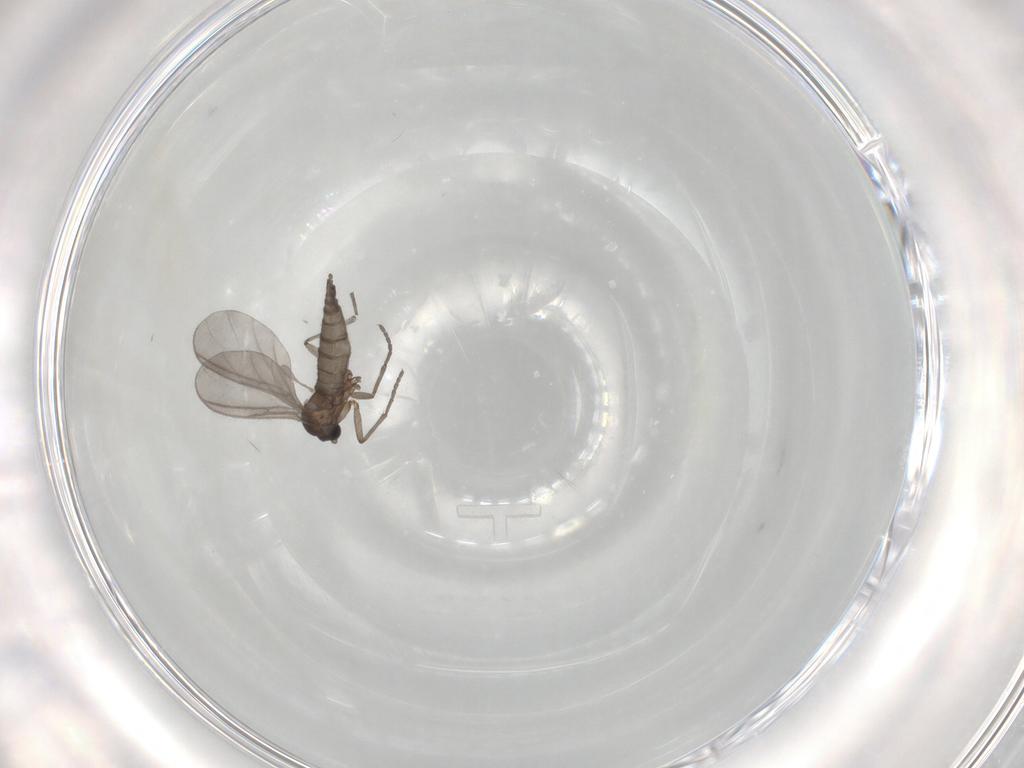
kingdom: Animalia
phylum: Arthropoda
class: Insecta
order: Diptera
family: Sciaridae
